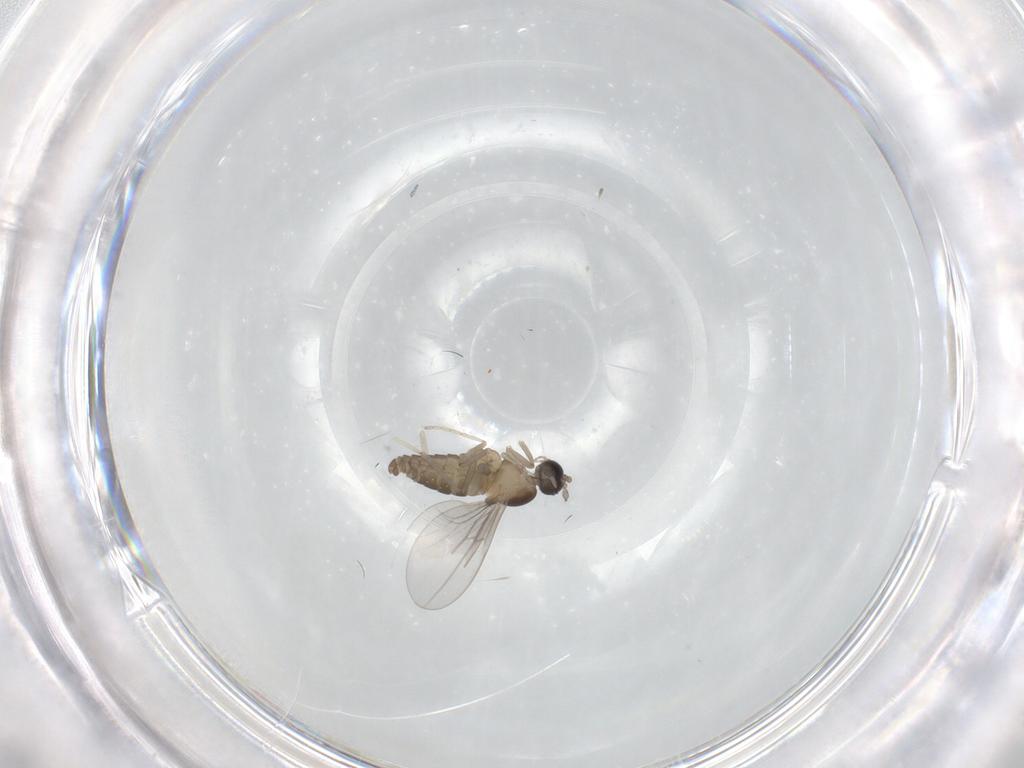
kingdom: Animalia
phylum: Arthropoda
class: Insecta
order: Diptera
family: Cecidomyiidae
